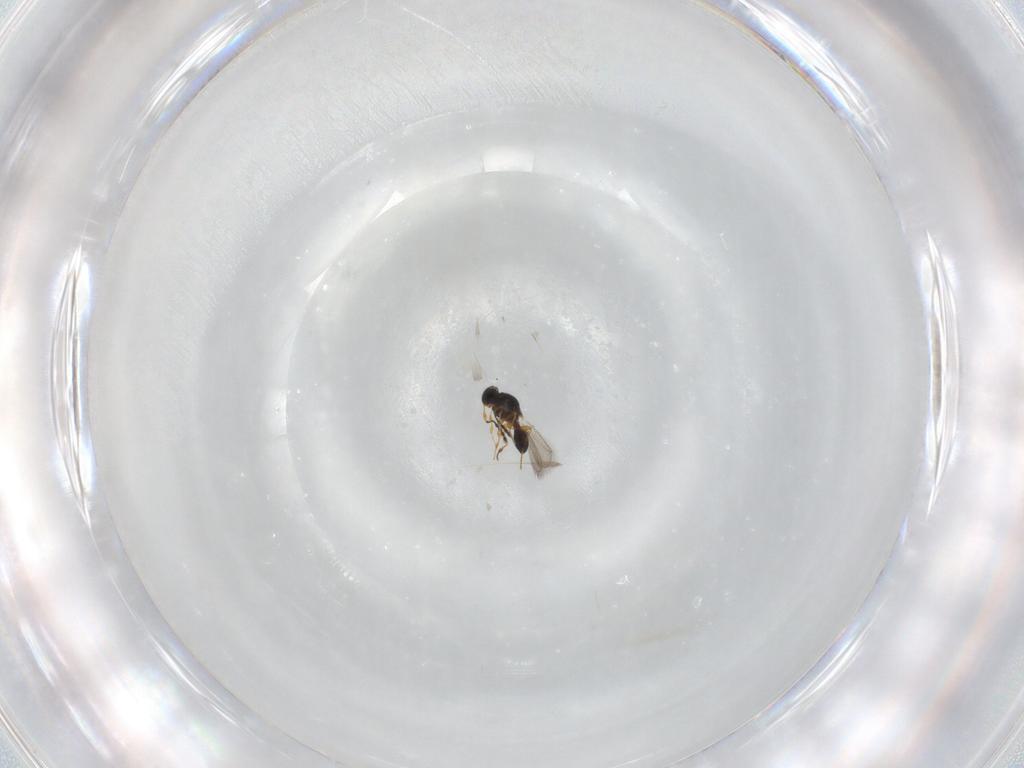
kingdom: Animalia
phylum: Arthropoda
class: Insecta
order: Hymenoptera
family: Platygastridae
